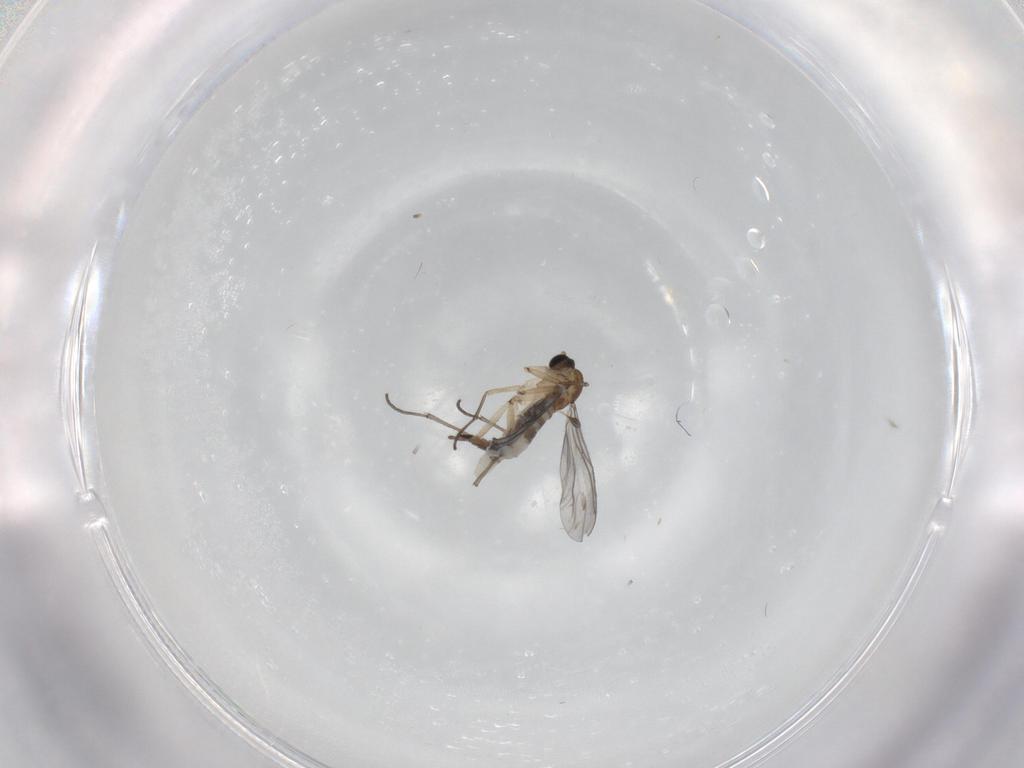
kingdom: Animalia
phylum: Arthropoda
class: Insecta
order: Diptera
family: Sciaridae
